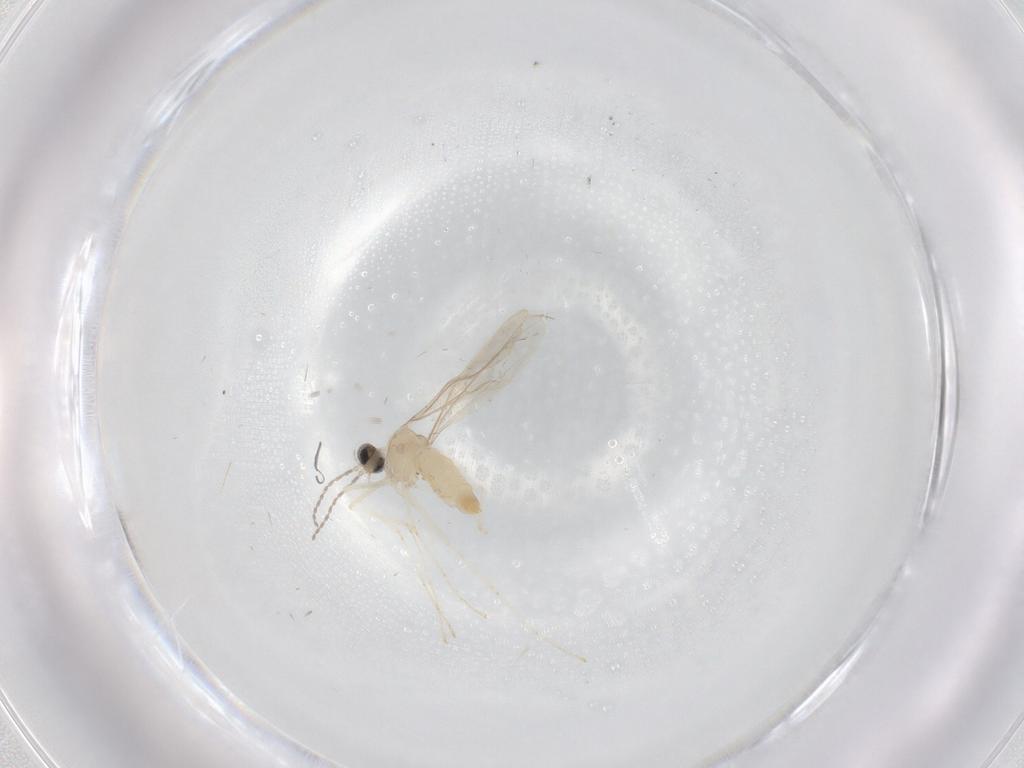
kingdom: Animalia
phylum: Arthropoda
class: Insecta
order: Diptera
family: Cecidomyiidae
